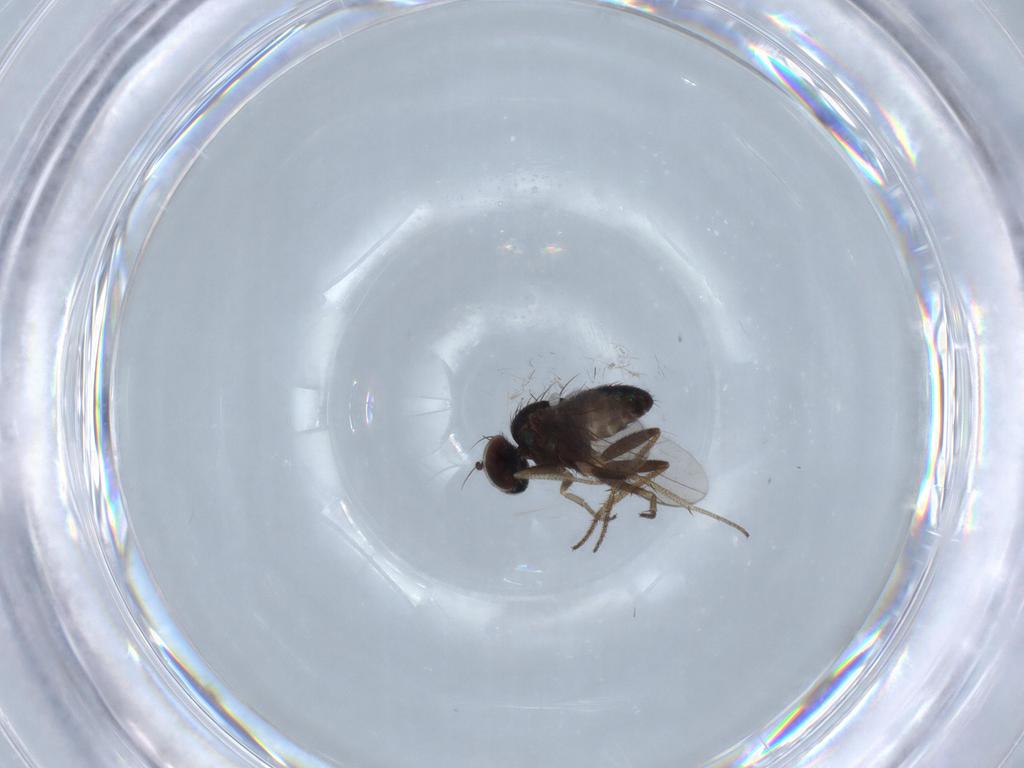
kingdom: Animalia
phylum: Arthropoda
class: Insecta
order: Diptera
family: Dolichopodidae
